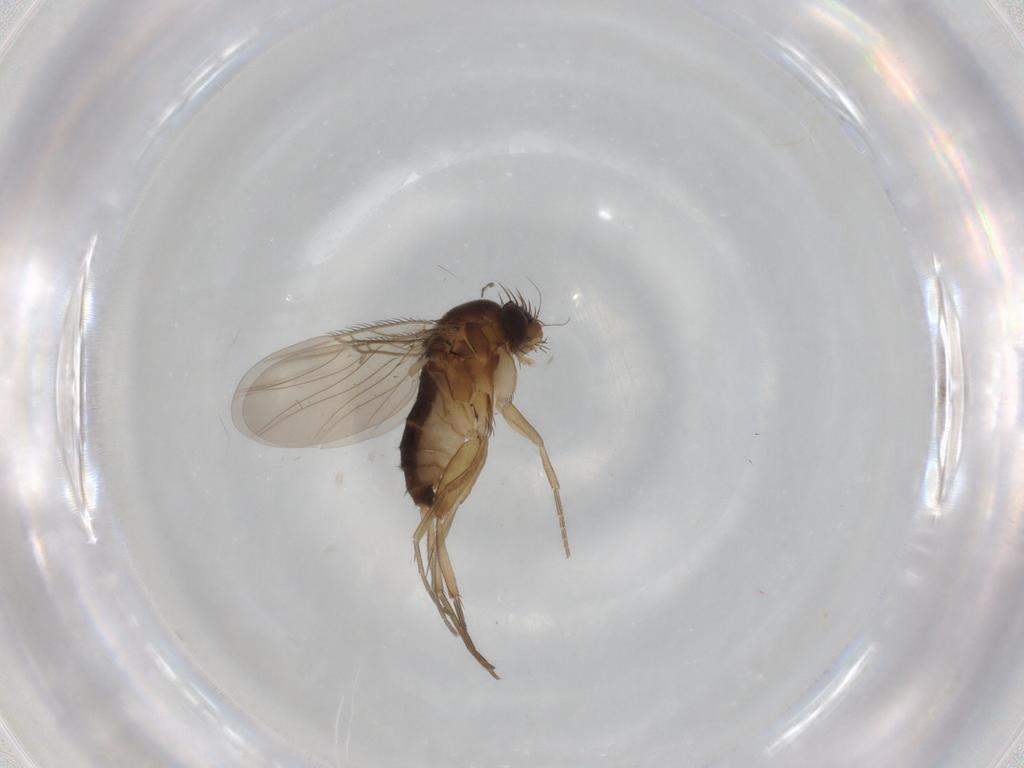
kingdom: Animalia
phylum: Arthropoda
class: Insecta
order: Diptera
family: Phoridae
